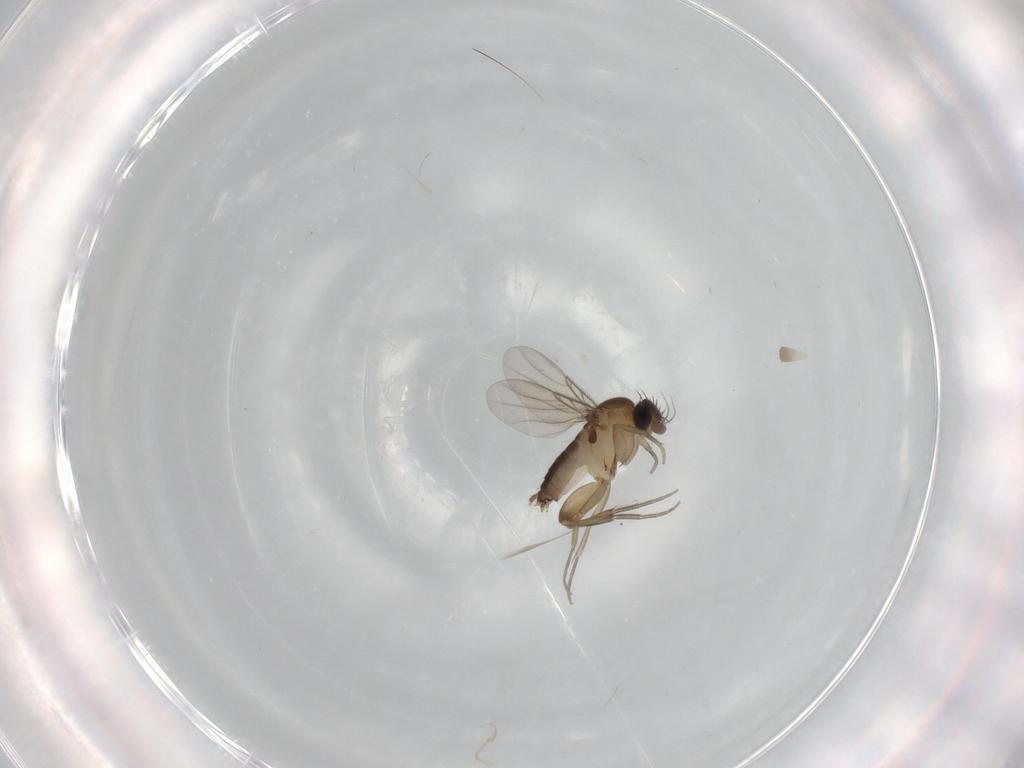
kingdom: Animalia
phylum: Arthropoda
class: Insecta
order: Diptera
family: Phoridae
